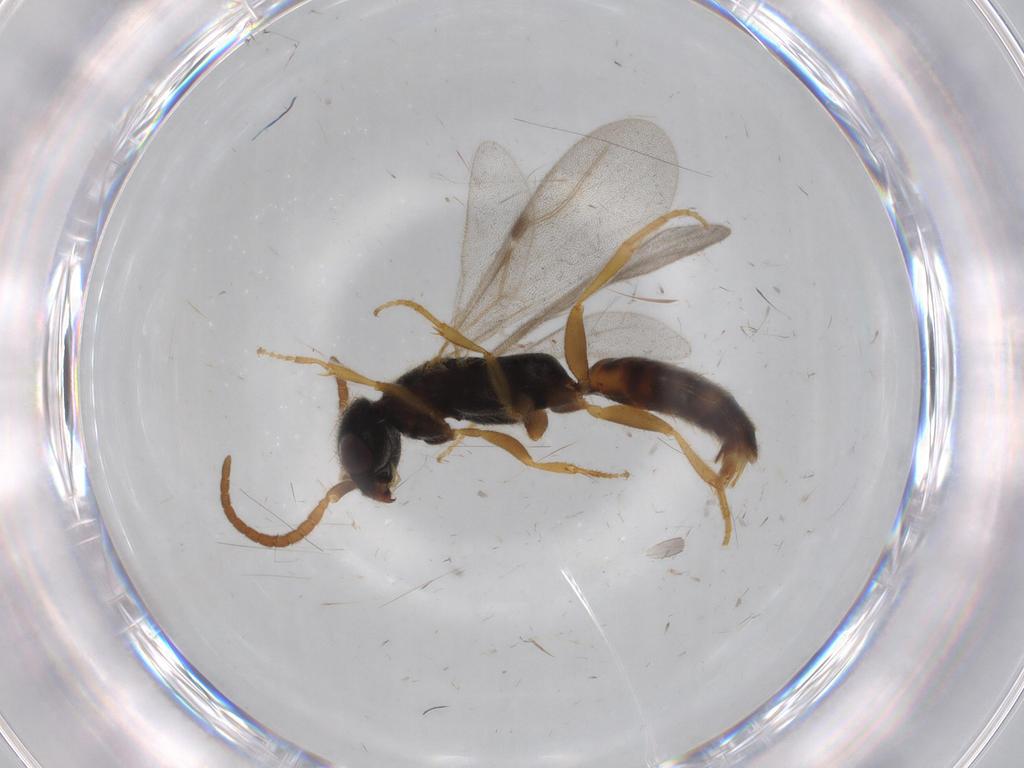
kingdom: Animalia
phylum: Arthropoda
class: Insecta
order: Hymenoptera
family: Bethylidae
